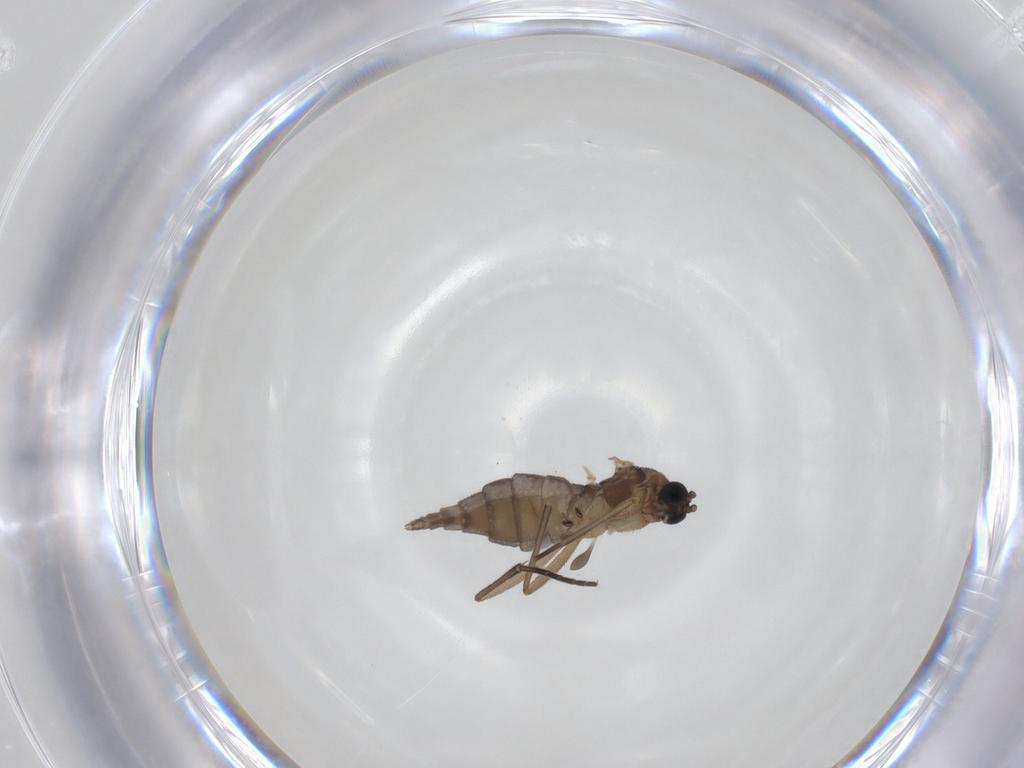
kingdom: Animalia
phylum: Arthropoda
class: Insecta
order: Diptera
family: Sciaridae
